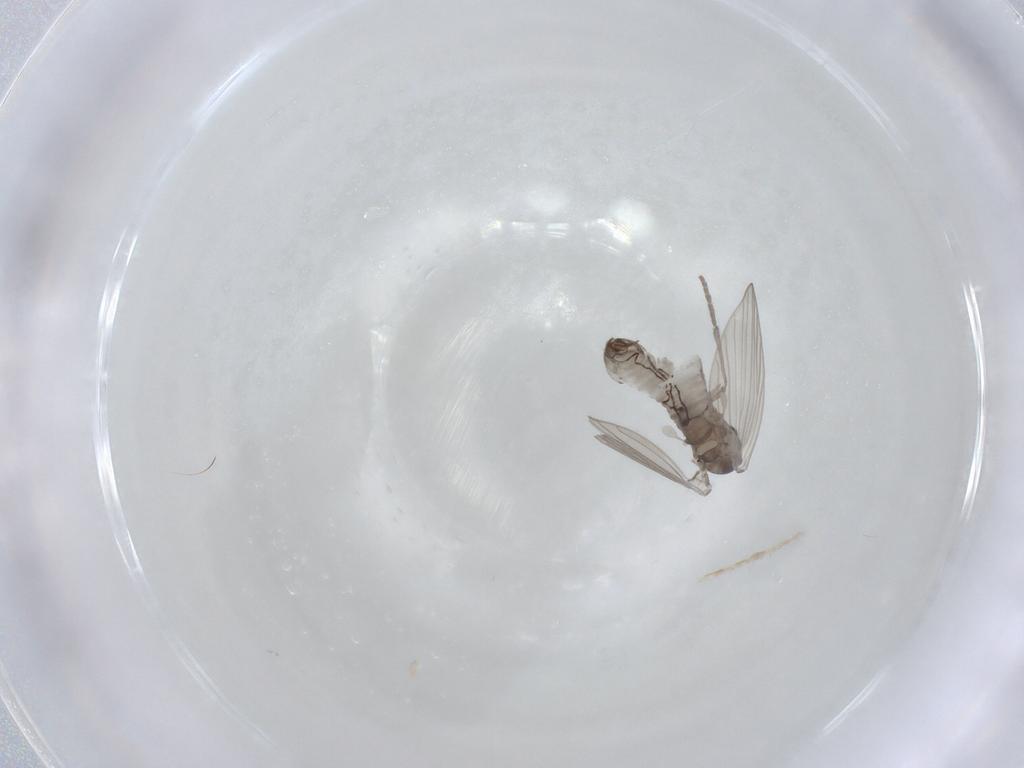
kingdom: Animalia
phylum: Arthropoda
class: Insecta
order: Diptera
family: Psychodidae
